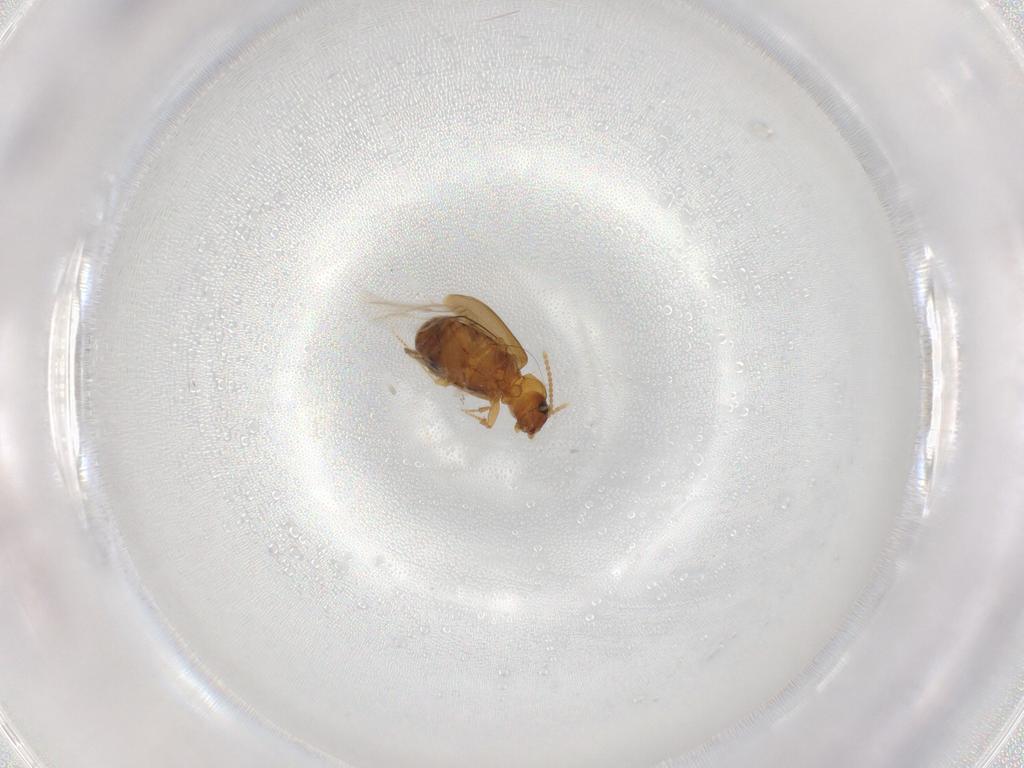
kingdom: Animalia
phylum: Arthropoda
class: Insecta
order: Coleoptera
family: Carabidae
